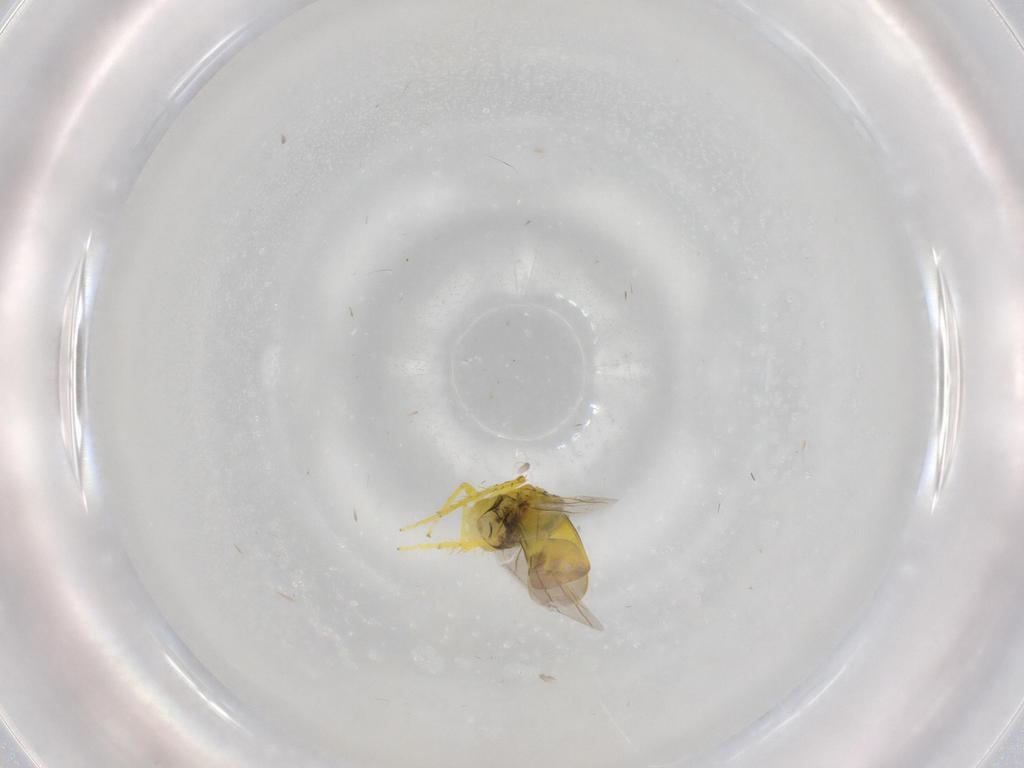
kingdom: Animalia
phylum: Arthropoda
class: Insecta
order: Hemiptera
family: Cicadellidae
